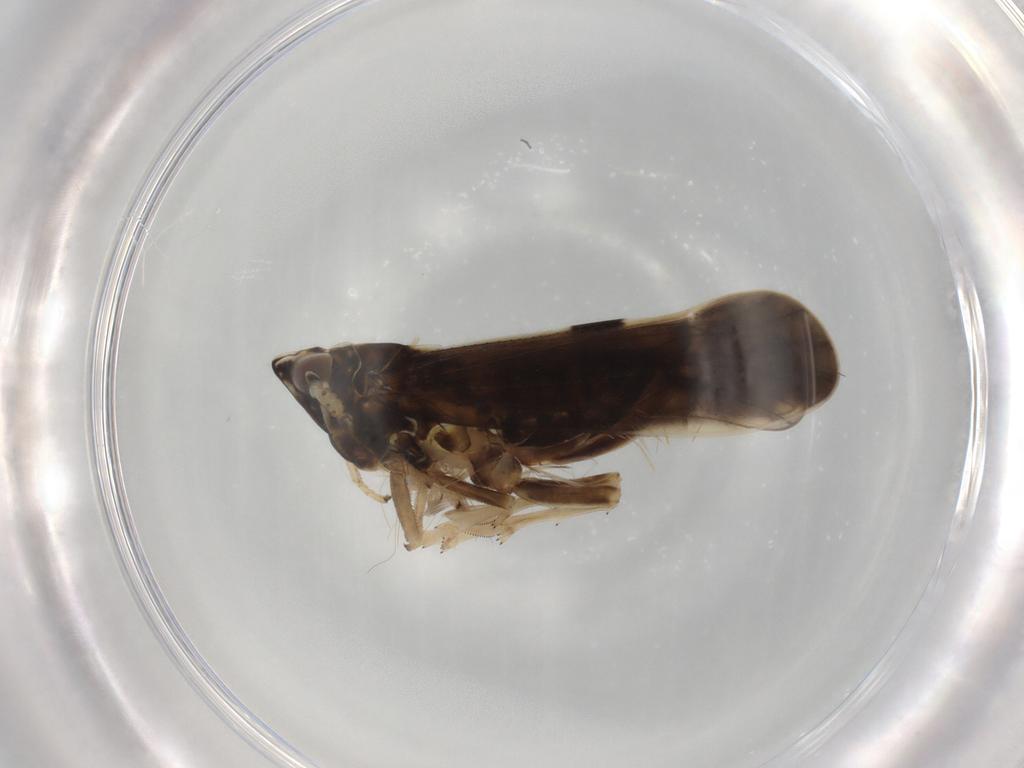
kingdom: Animalia
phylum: Arthropoda
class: Insecta
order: Hemiptera
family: Delphacidae
